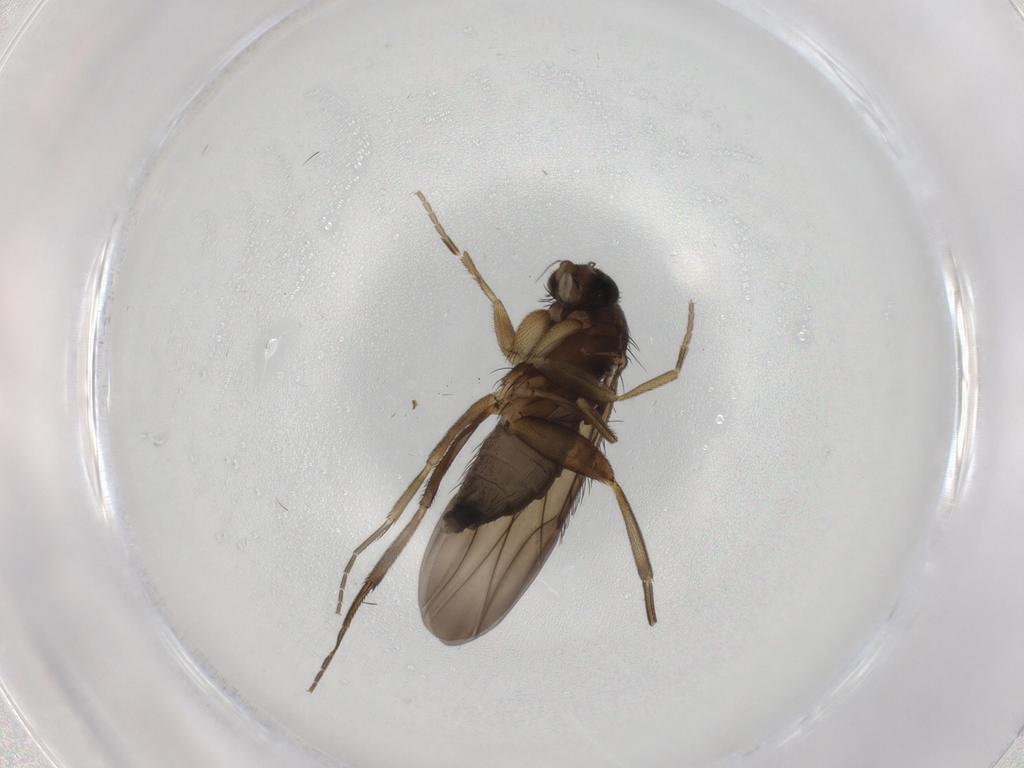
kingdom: Animalia
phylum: Arthropoda
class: Insecta
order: Diptera
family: Phoridae
